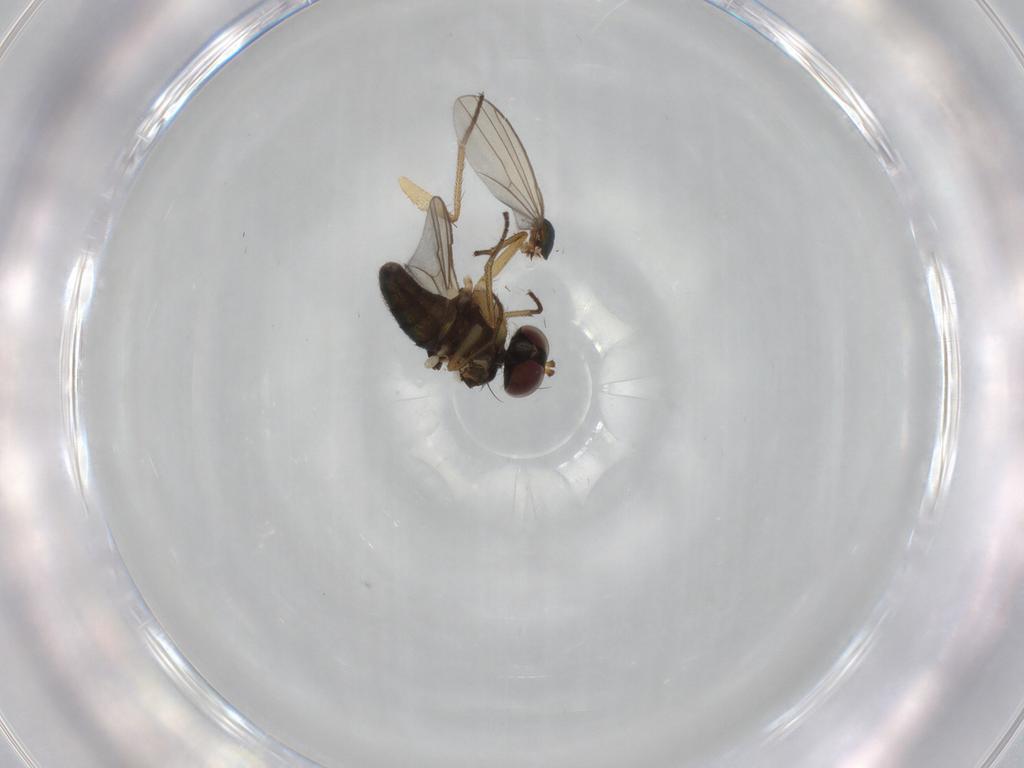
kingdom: Animalia
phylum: Arthropoda
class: Insecta
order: Diptera
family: Dolichopodidae
